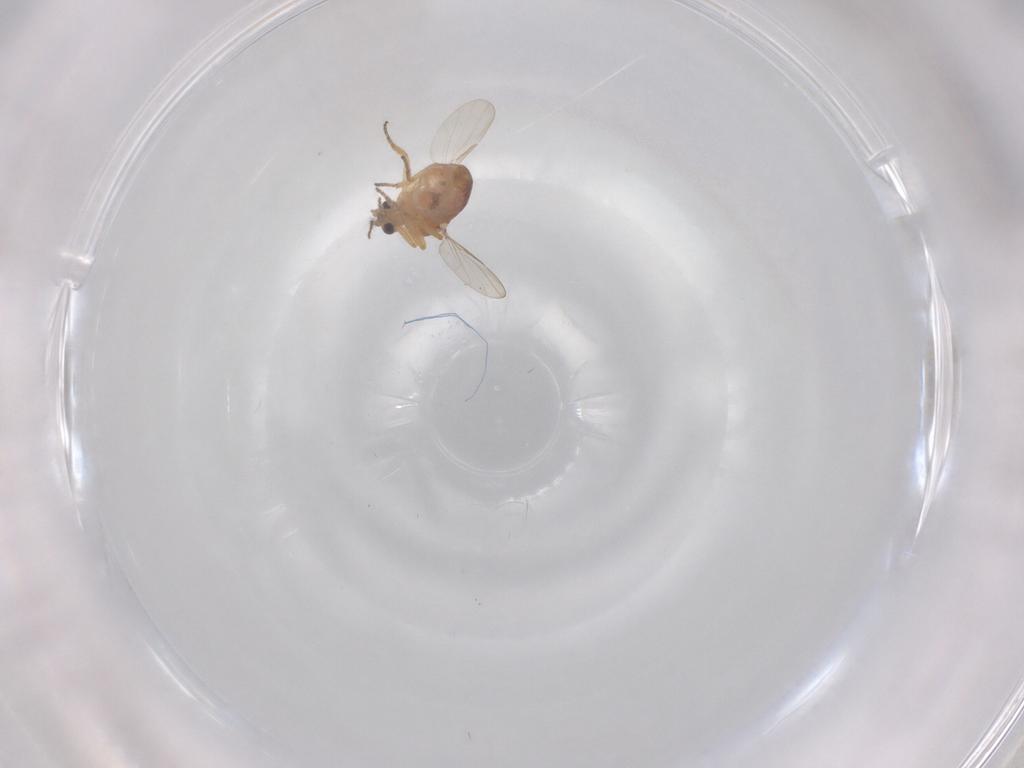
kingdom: Animalia
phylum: Arthropoda
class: Insecta
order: Diptera
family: Ceratopogonidae
